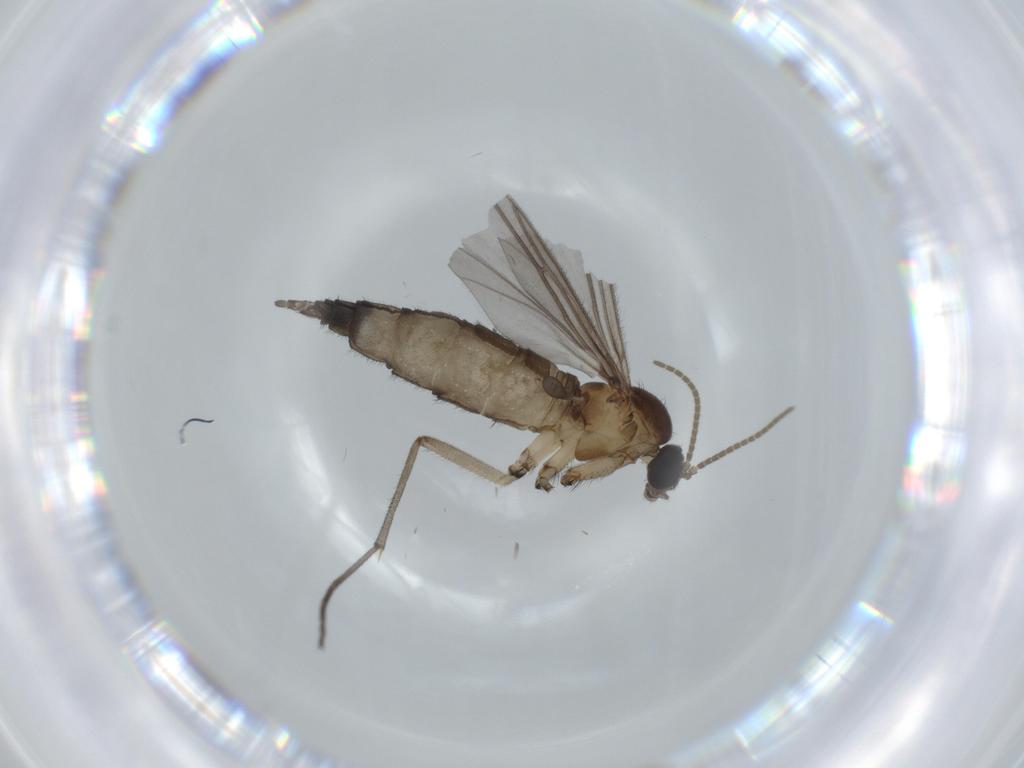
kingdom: Animalia
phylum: Arthropoda
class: Insecta
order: Diptera
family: Sciaridae
